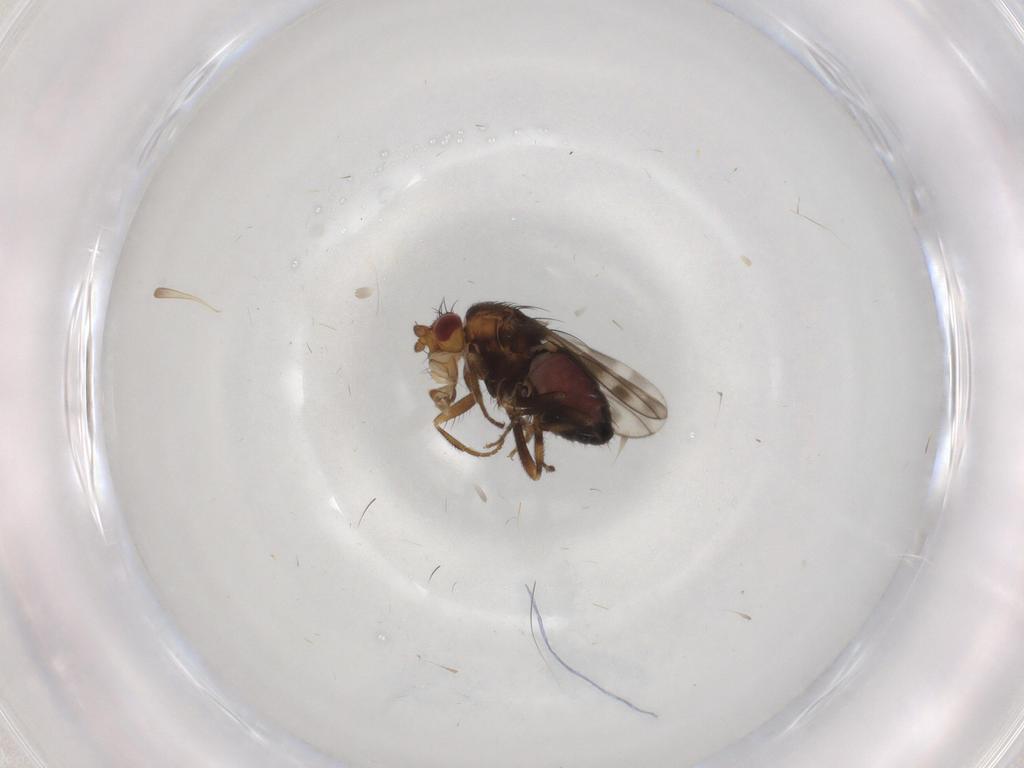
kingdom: Animalia
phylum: Arthropoda
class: Insecta
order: Diptera
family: Sphaeroceridae
